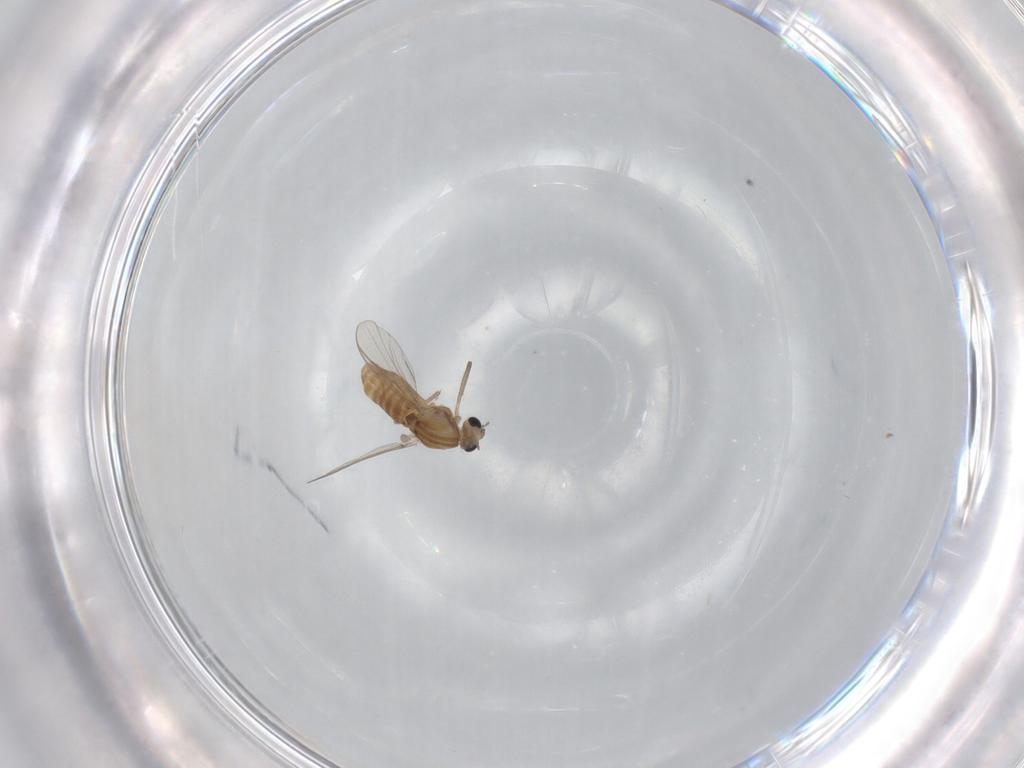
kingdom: Animalia
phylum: Arthropoda
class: Insecta
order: Diptera
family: Chironomidae
